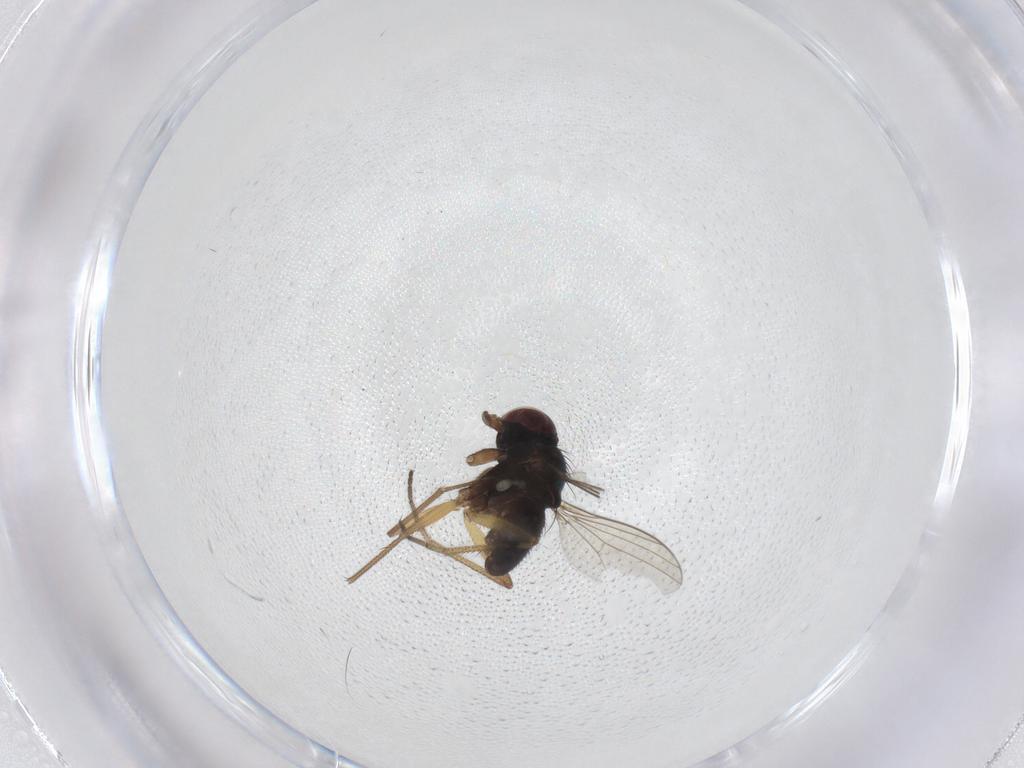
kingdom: Animalia
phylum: Arthropoda
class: Insecta
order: Diptera
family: Dolichopodidae
